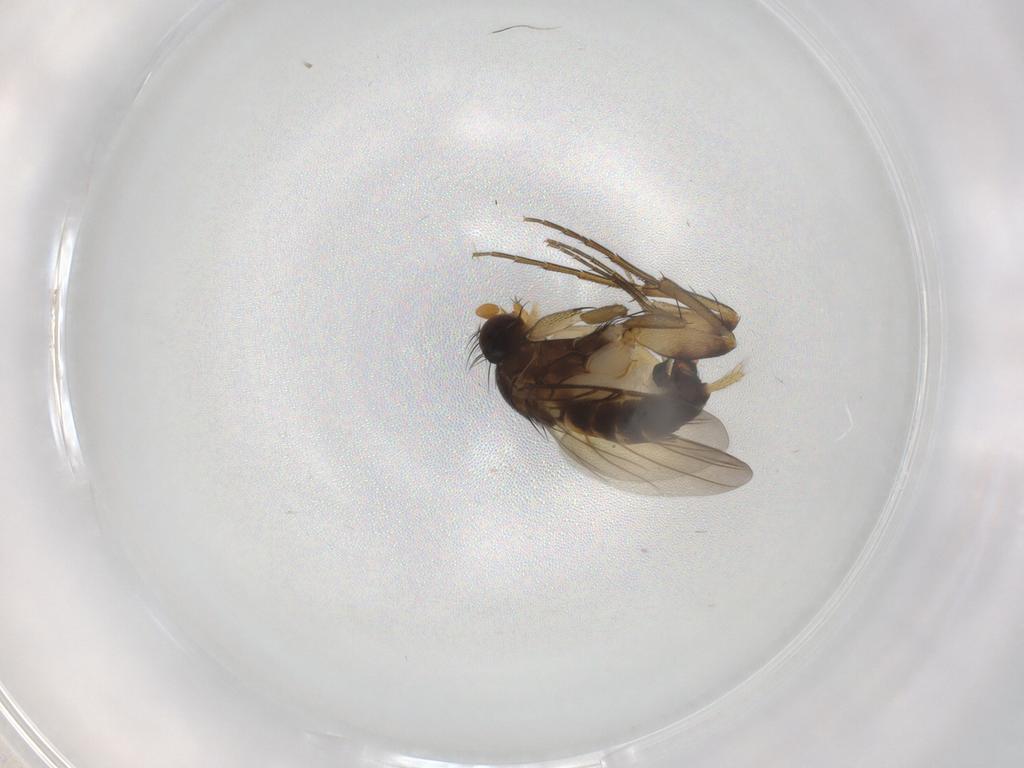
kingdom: Animalia
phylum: Arthropoda
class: Insecta
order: Diptera
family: Phoridae
